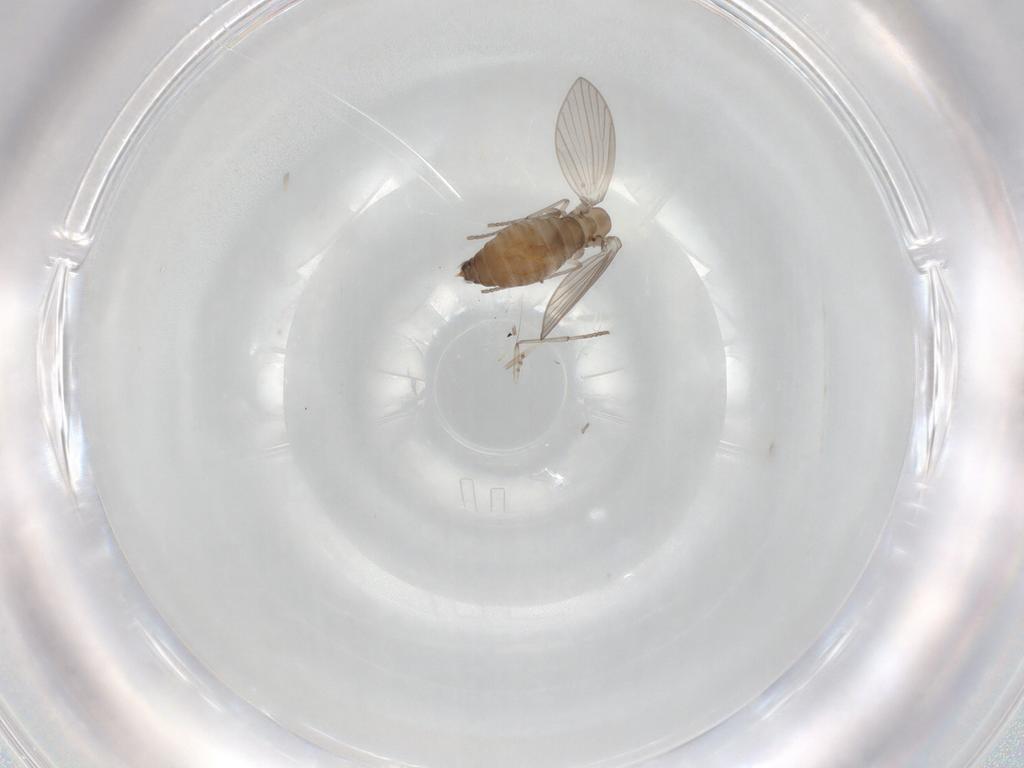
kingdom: Animalia
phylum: Arthropoda
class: Insecta
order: Diptera
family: Psychodidae
